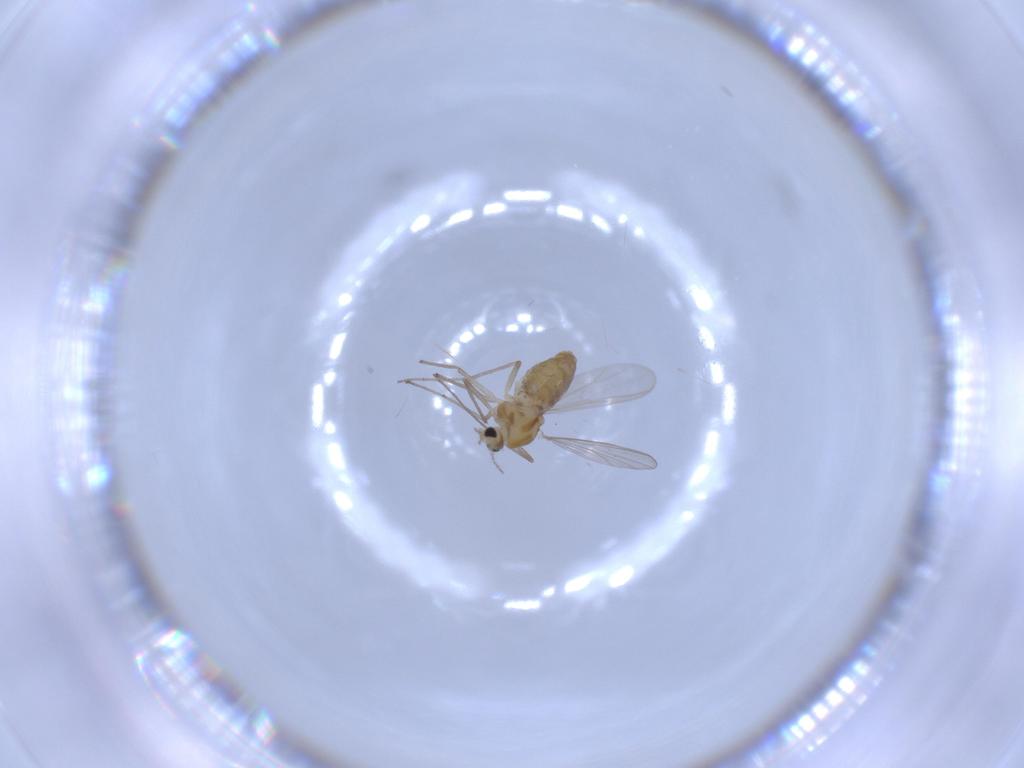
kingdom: Animalia
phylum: Arthropoda
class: Insecta
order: Diptera
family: Chironomidae
